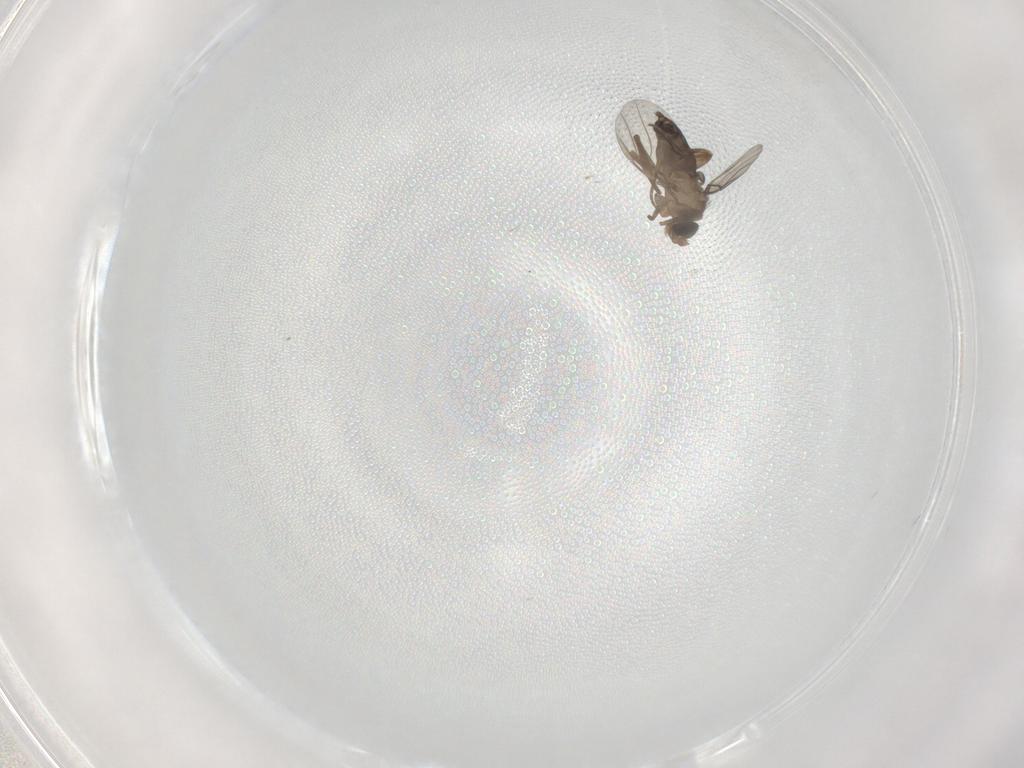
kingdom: Animalia
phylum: Arthropoda
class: Insecta
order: Diptera
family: Phoridae
